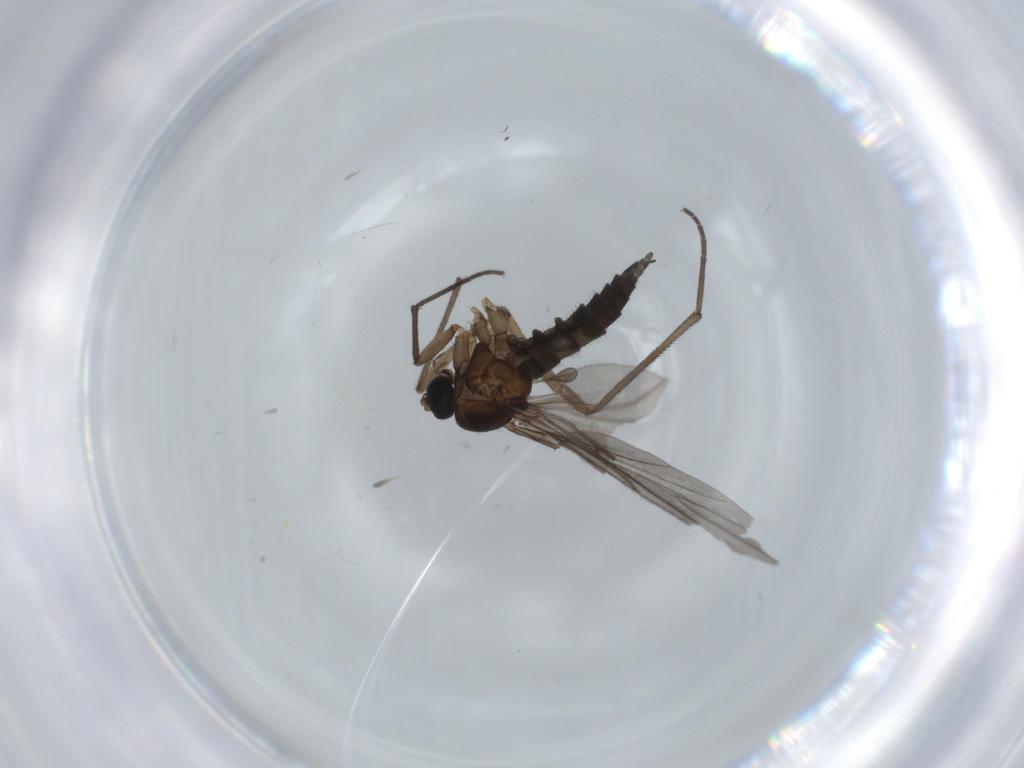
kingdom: Animalia
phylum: Arthropoda
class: Insecta
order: Diptera
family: Sciaridae
